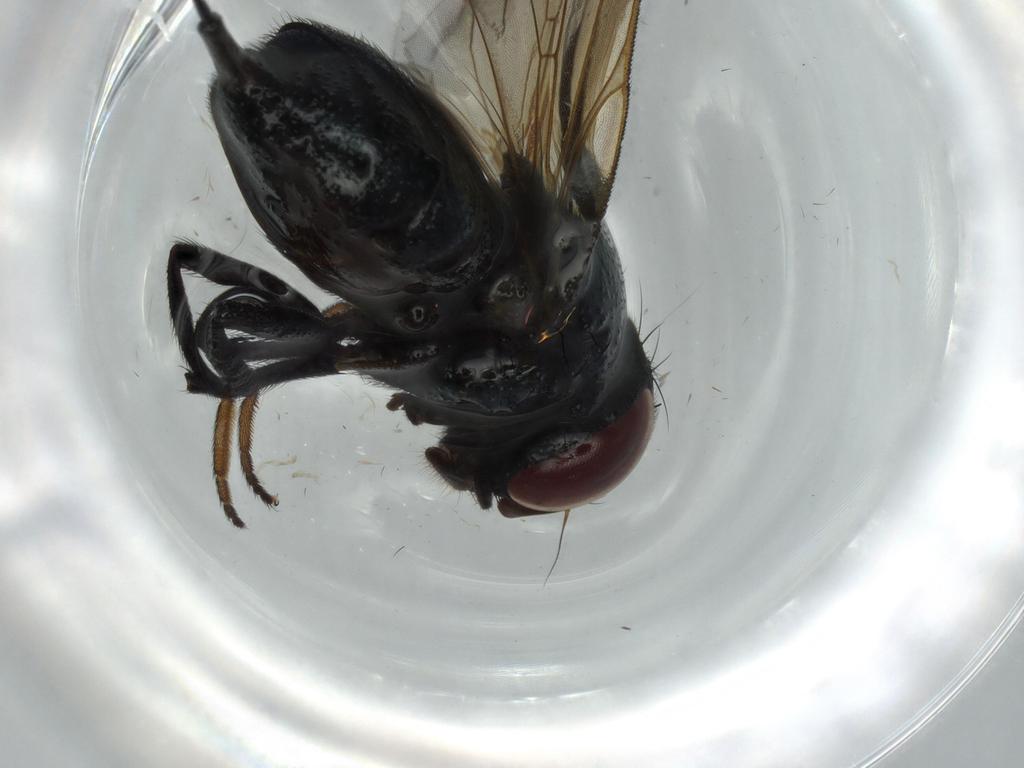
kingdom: Animalia
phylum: Arthropoda
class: Insecta
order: Diptera
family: Lonchaeidae
